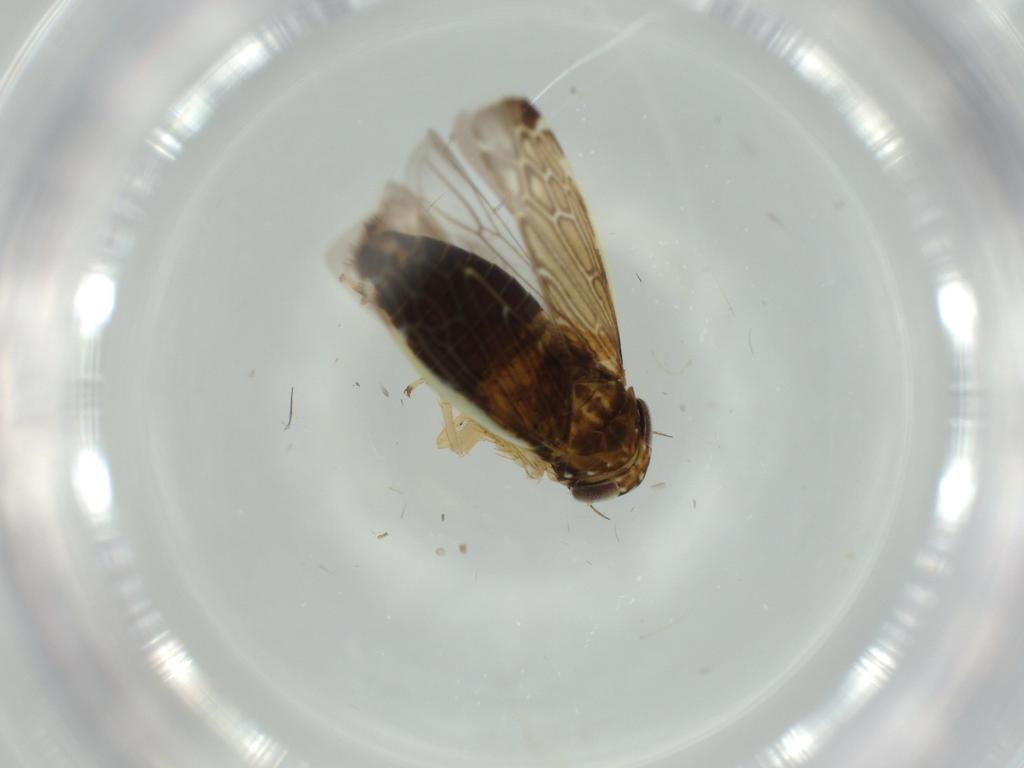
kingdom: Animalia
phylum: Arthropoda
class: Insecta
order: Hemiptera
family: Cicadellidae
